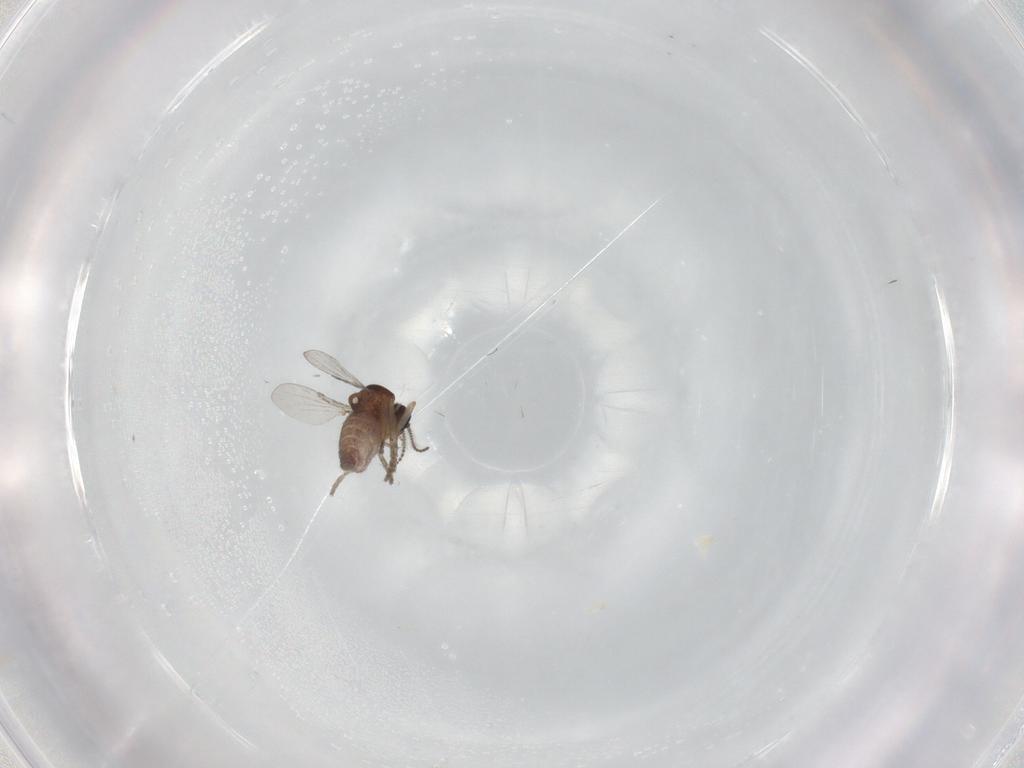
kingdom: Animalia
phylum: Arthropoda
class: Insecta
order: Diptera
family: Ceratopogonidae
